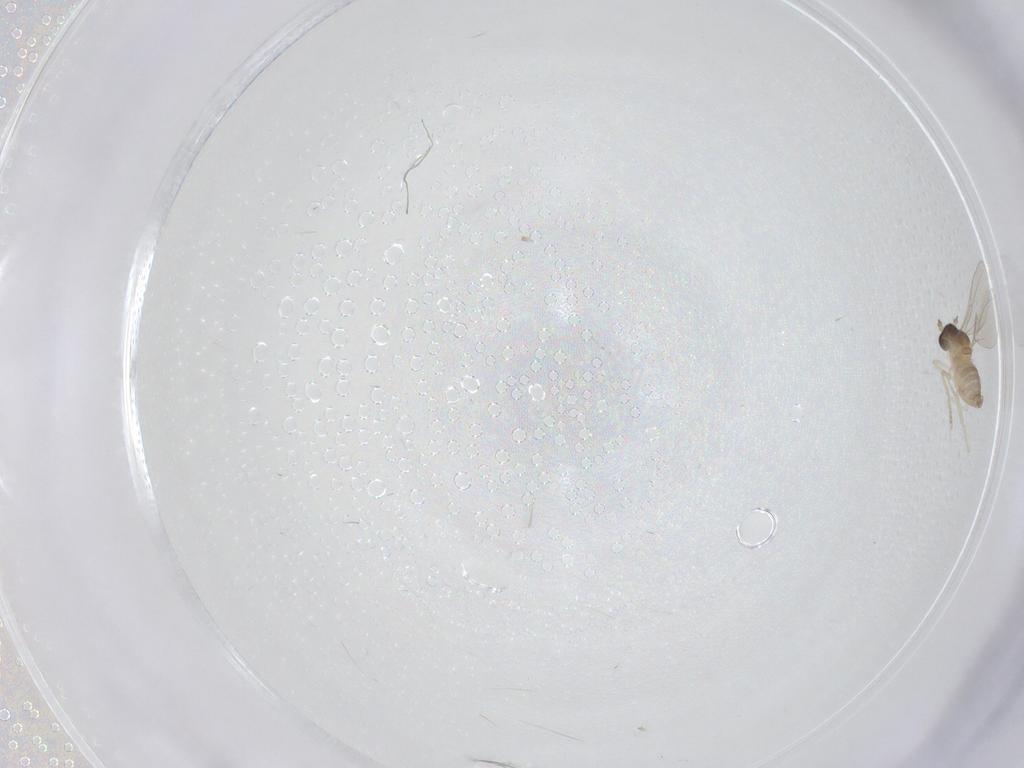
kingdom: Animalia
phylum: Arthropoda
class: Insecta
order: Diptera
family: Cecidomyiidae
